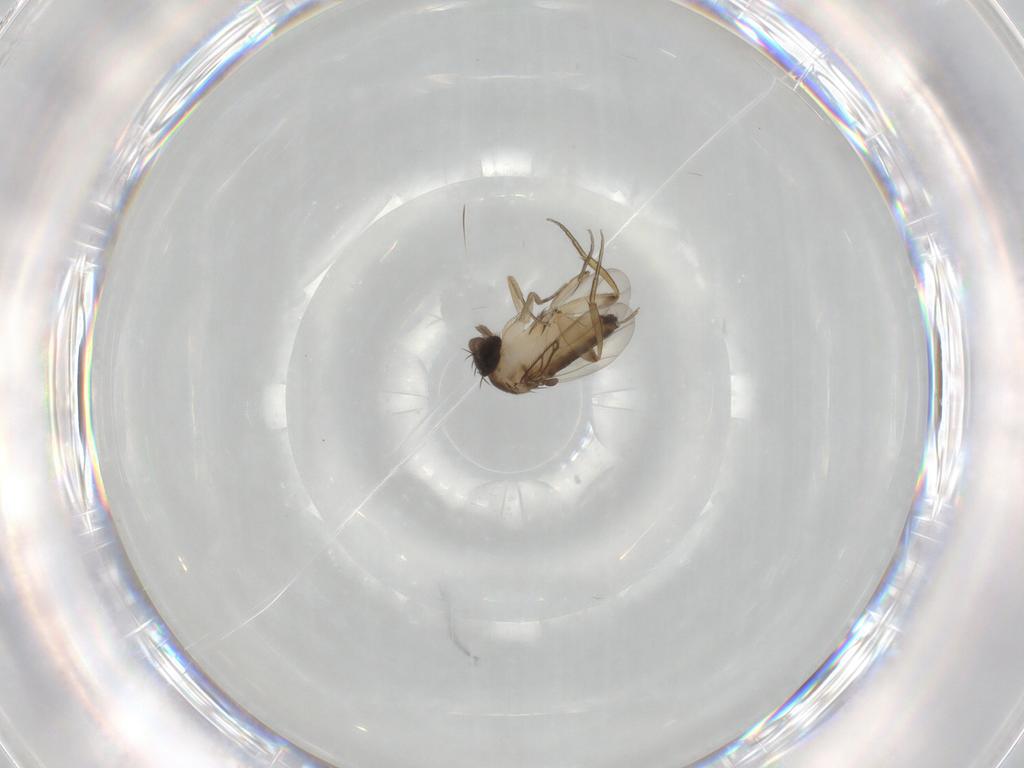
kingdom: Animalia
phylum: Arthropoda
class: Insecta
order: Diptera
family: Phoridae
